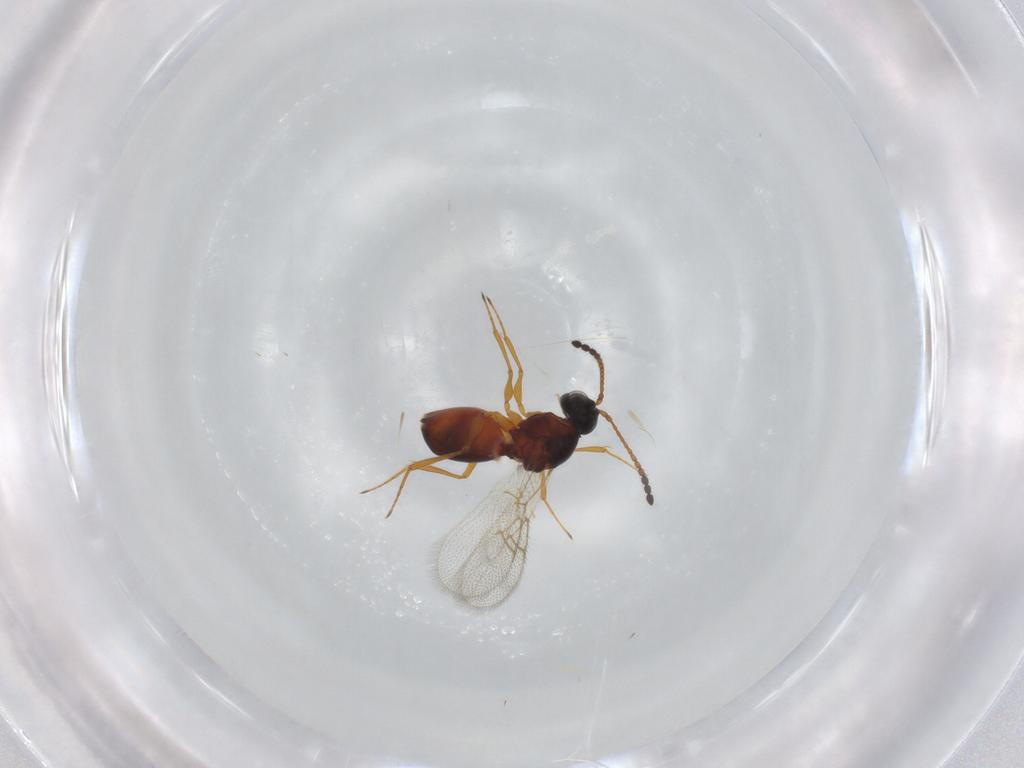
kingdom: Animalia
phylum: Arthropoda
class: Insecta
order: Hymenoptera
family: Figitidae
